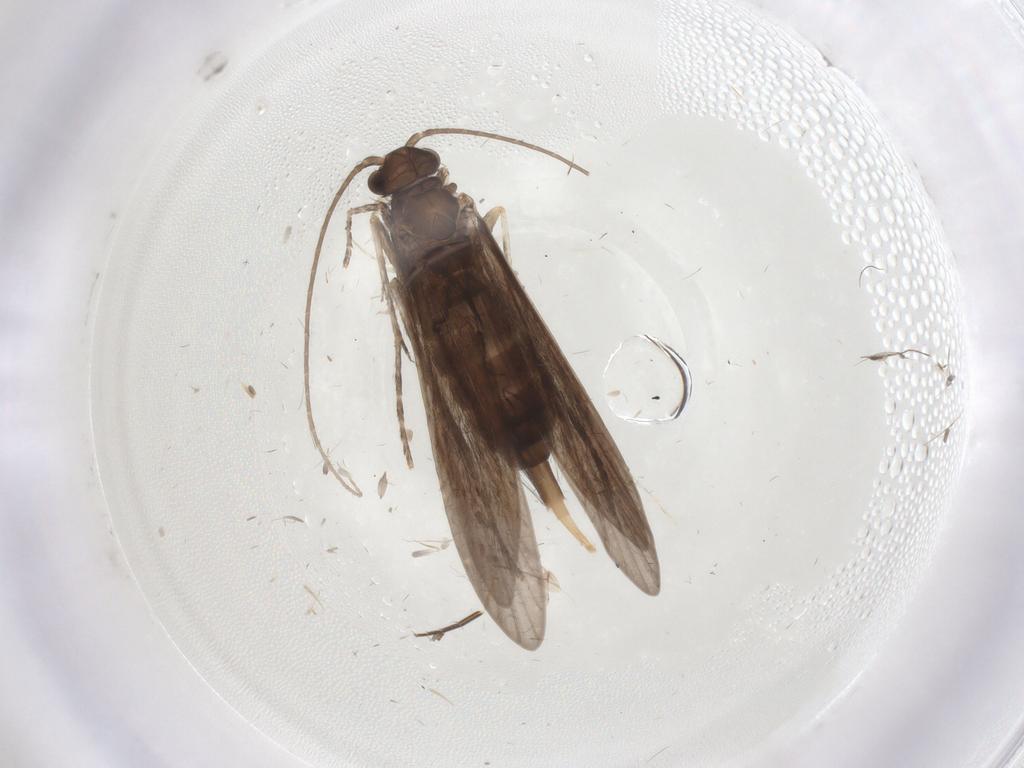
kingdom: Animalia
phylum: Arthropoda
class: Insecta
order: Trichoptera
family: Xiphocentronidae
